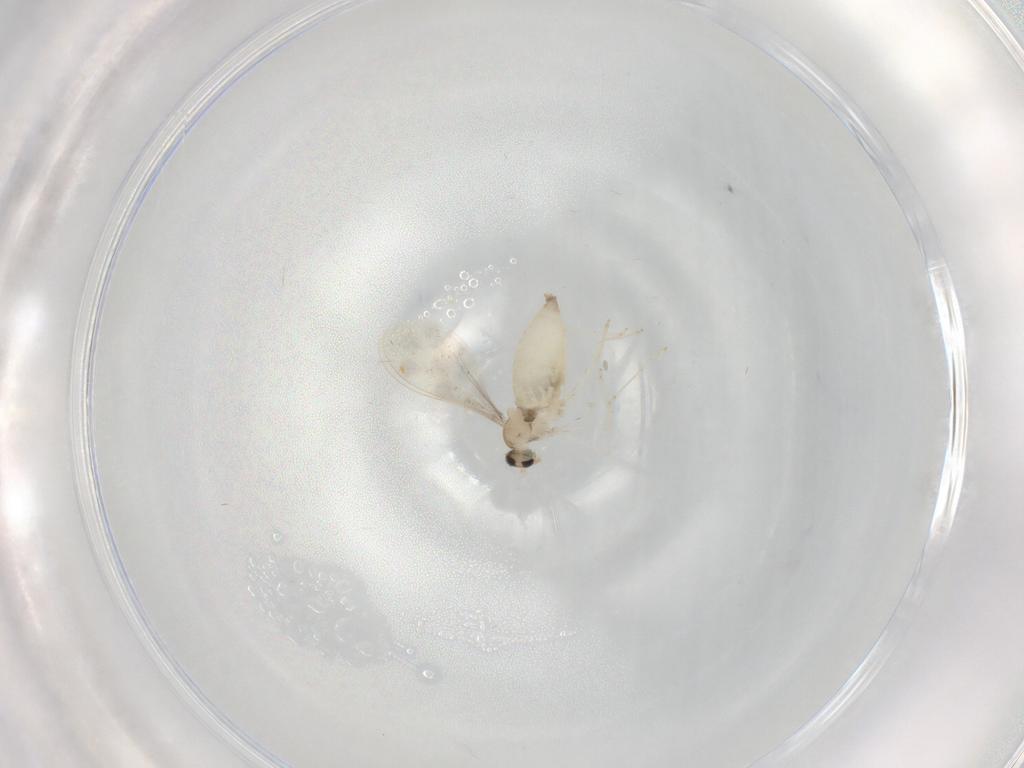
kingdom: Animalia
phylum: Arthropoda
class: Insecta
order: Diptera
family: Cecidomyiidae
